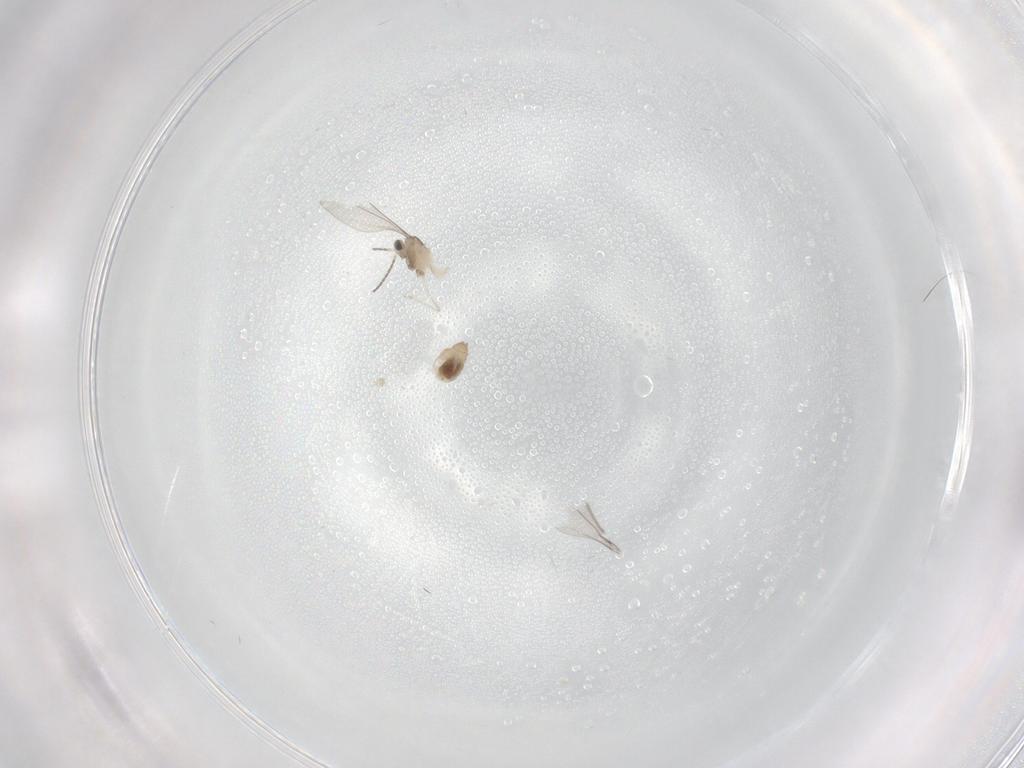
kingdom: Animalia
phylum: Arthropoda
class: Insecta
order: Diptera
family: Cecidomyiidae
